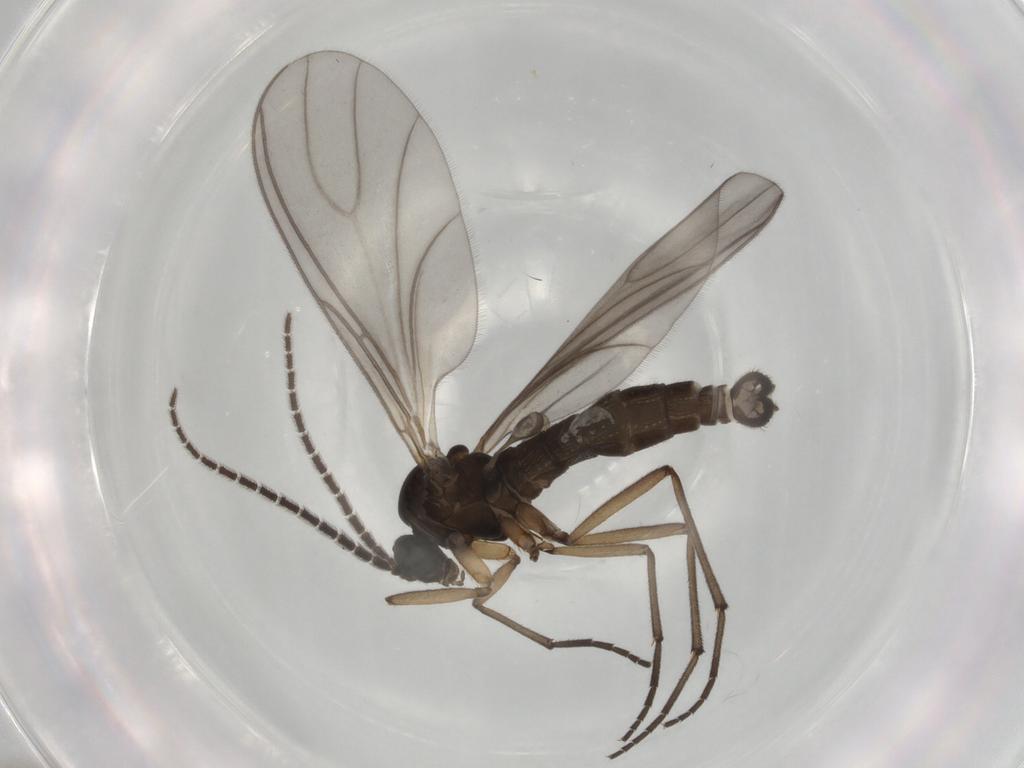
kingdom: Animalia
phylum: Arthropoda
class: Insecta
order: Diptera
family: Sciaridae
